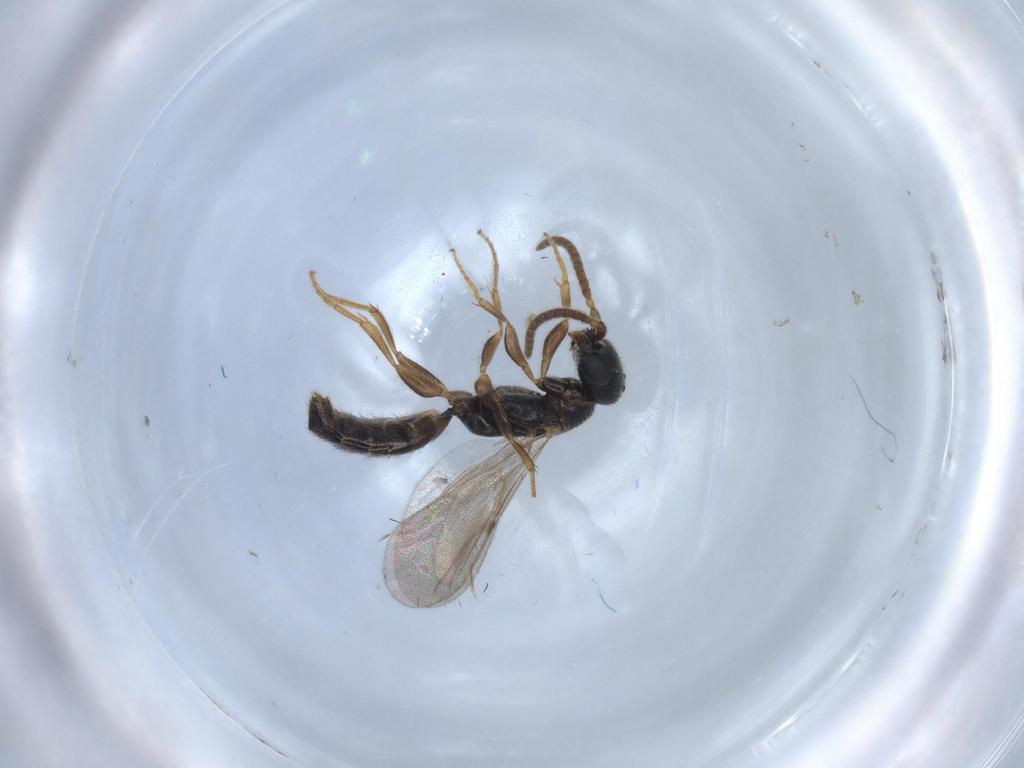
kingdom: Animalia
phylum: Arthropoda
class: Insecta
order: Hymenoptera
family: Bethylidae
